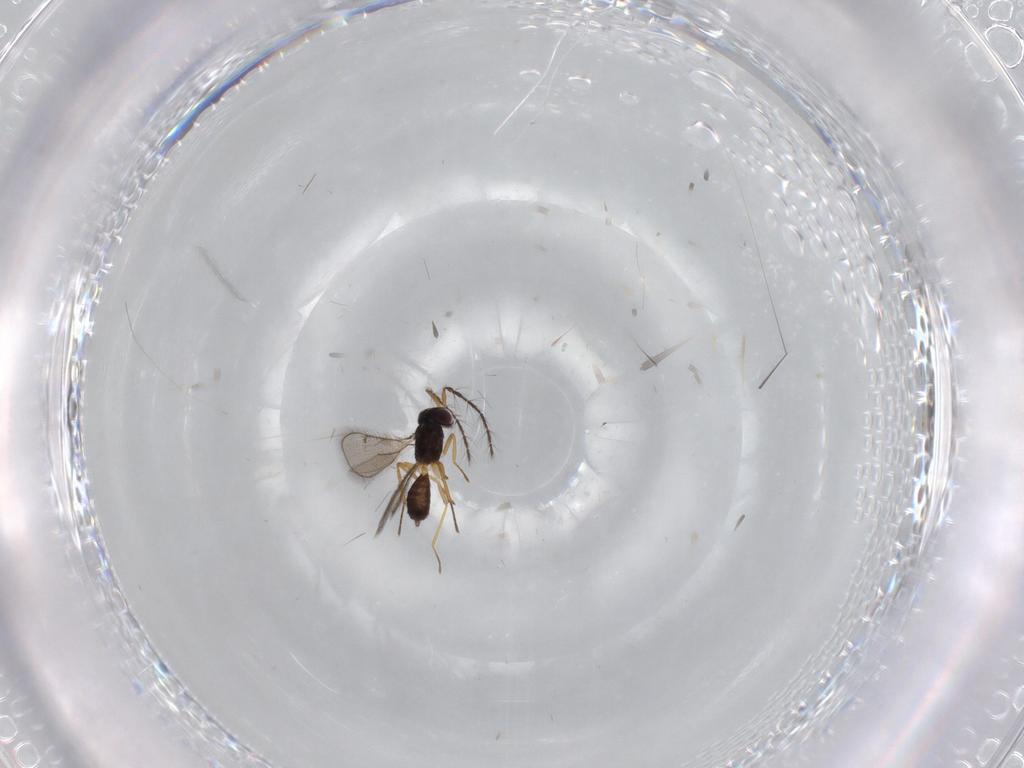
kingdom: Animalia
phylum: Arthropoda
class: Insecta
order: Hymenoptera
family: Eulophidae
